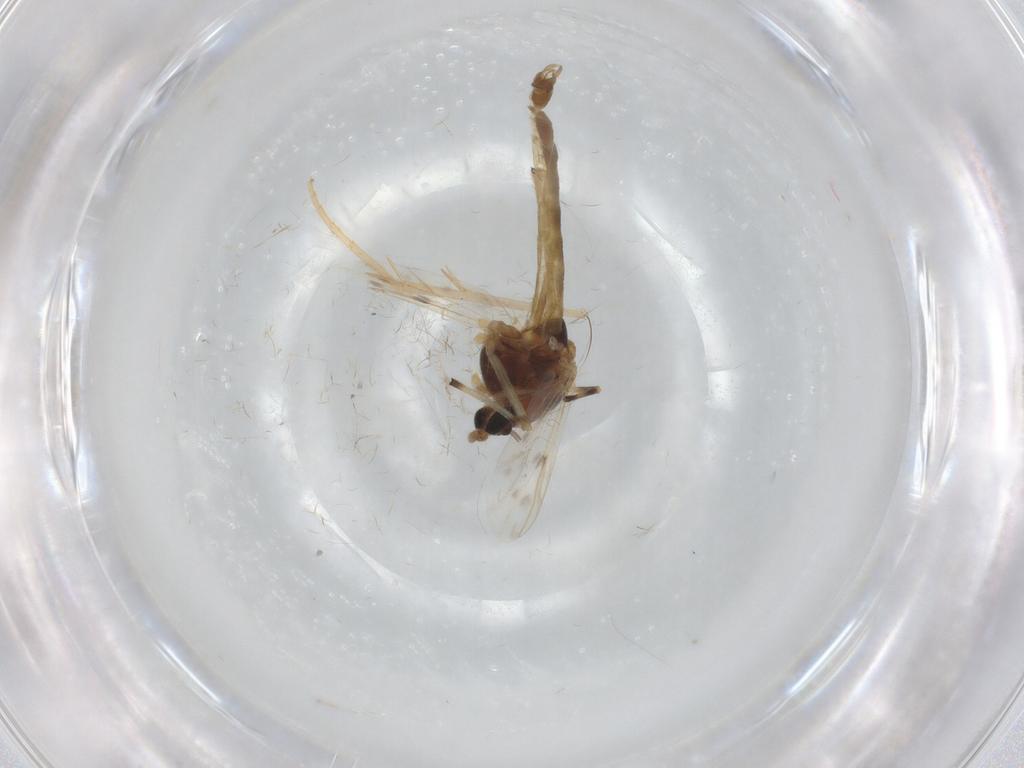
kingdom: Animalia
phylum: Arthropoda
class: Insecta
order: Diptera
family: Chironomidae
